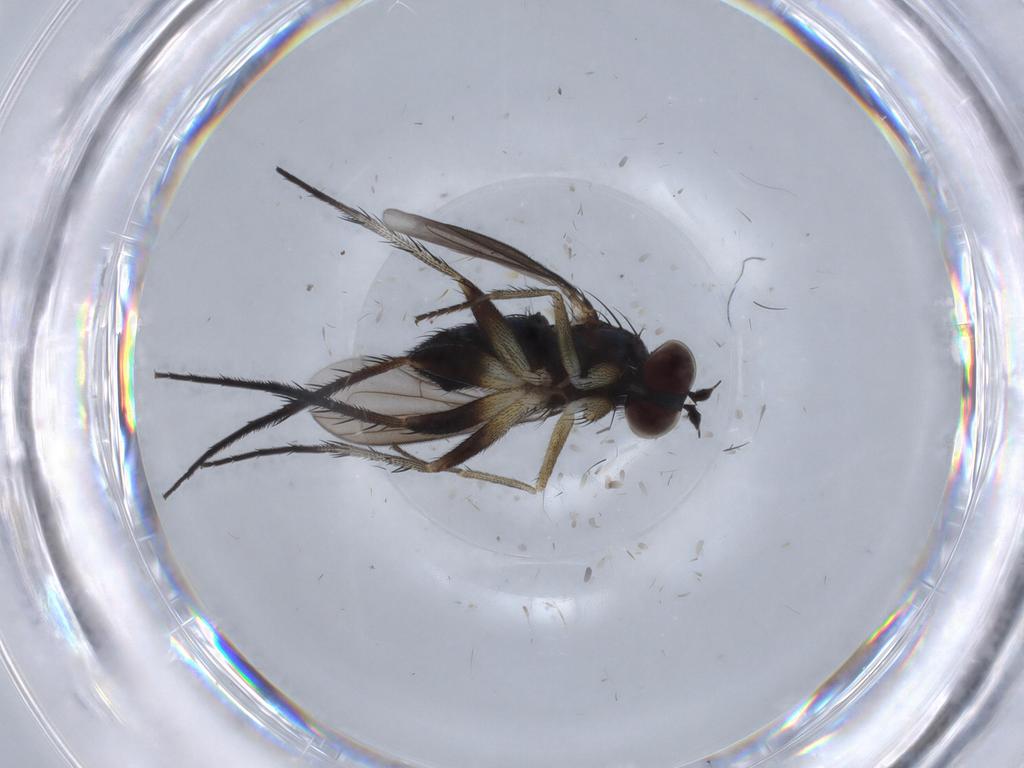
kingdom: Animalia
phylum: Arthropoda
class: Insecta
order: Diptera
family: Dolichopodidae
